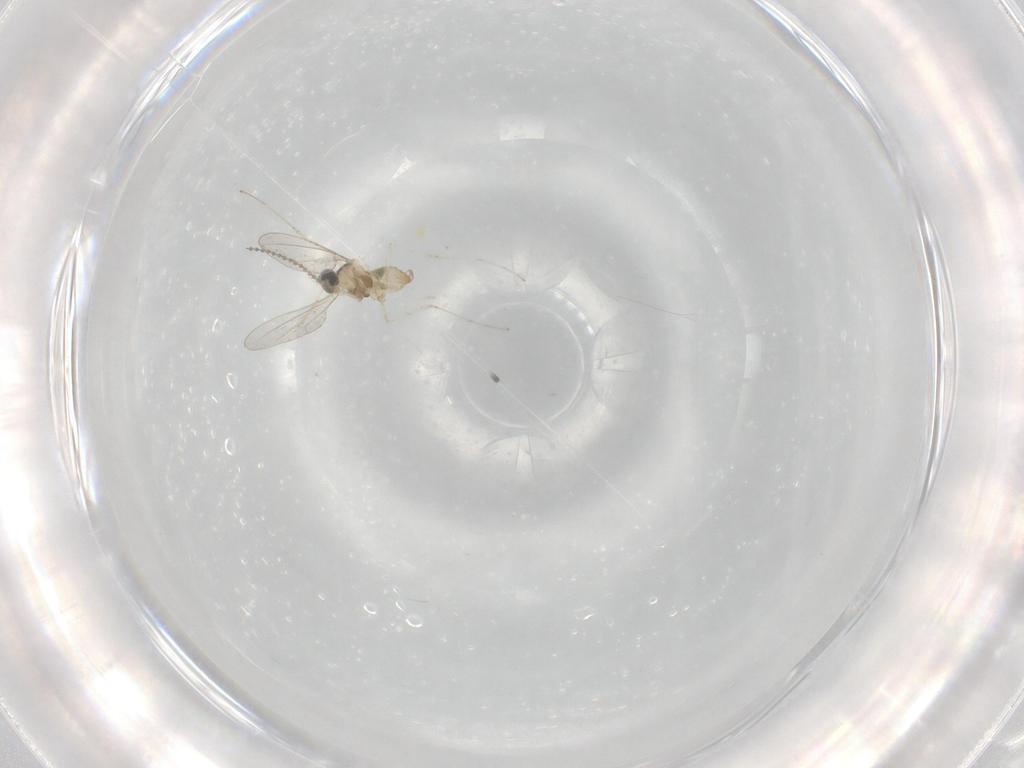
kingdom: Animalia
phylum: Arthropoda
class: Insecta
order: Diptera
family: Cecidomyiidae
